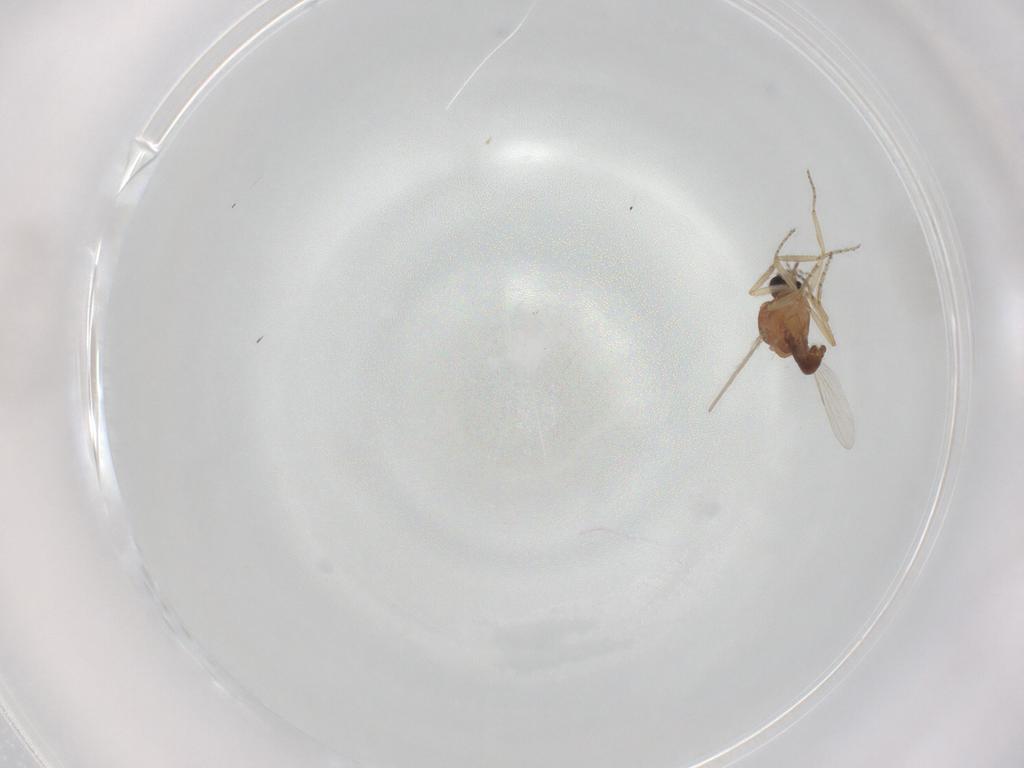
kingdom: Animalia
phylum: Arthropoda
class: Insecta
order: Diptera
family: Ceratopogonidae
